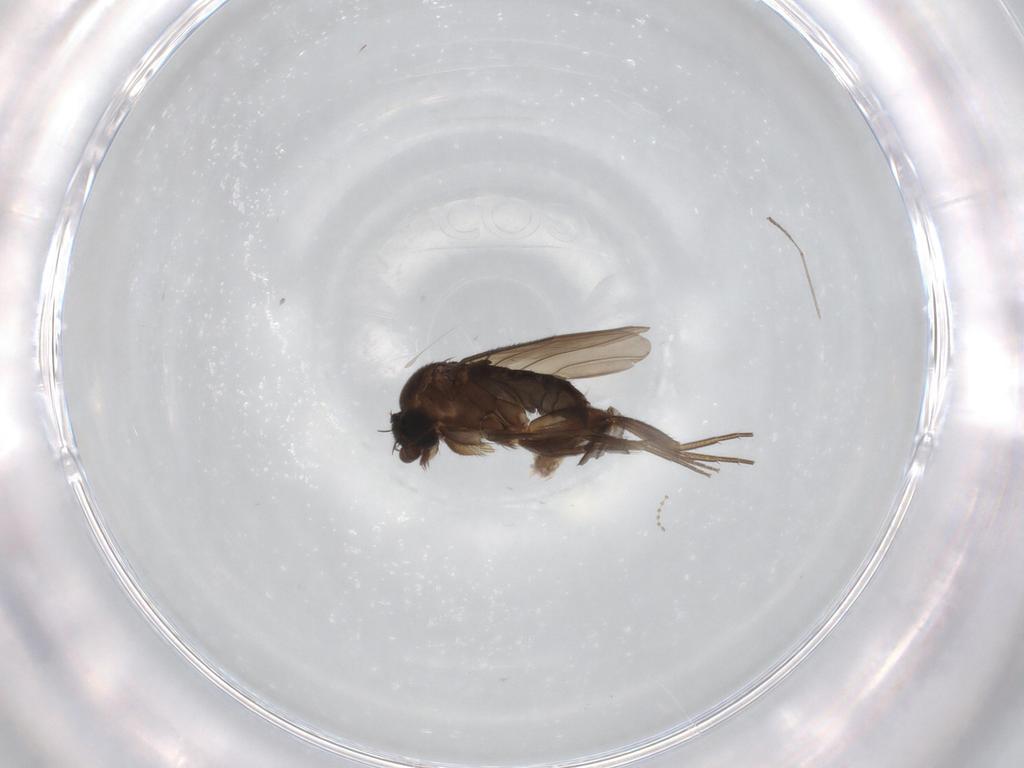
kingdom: Animalia
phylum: Arthropoda
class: Insecta
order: Diptera
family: Phoridae
